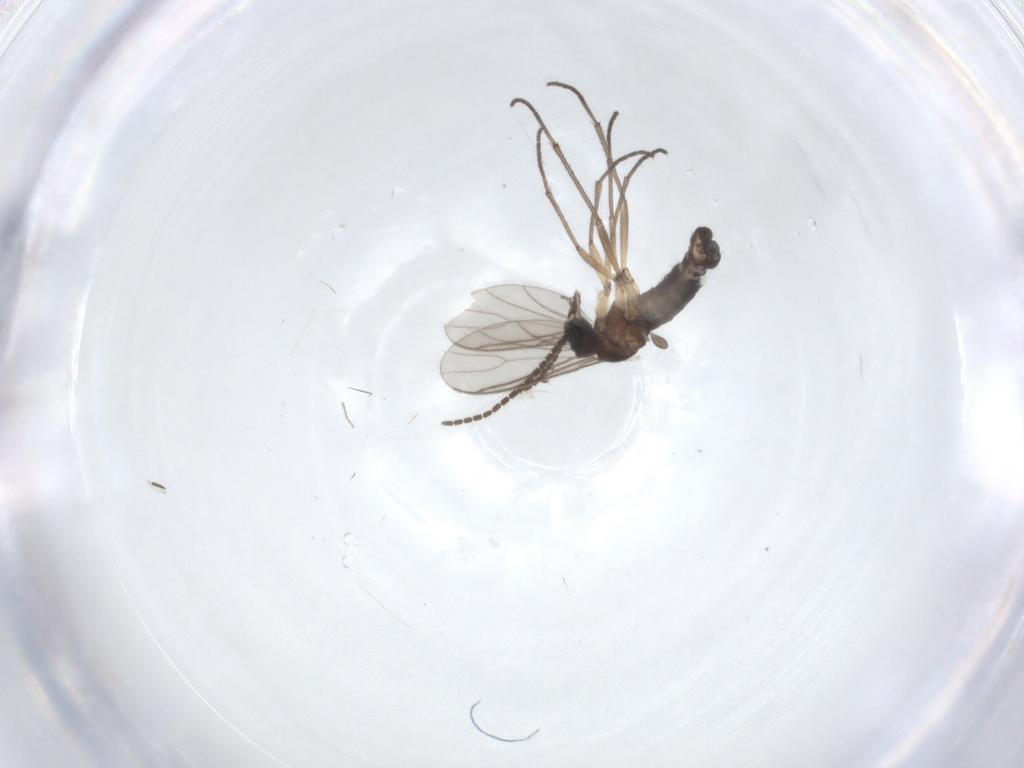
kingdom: Animalia
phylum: Arthropoda
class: Insecta
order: Diptera
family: Sciaridae
